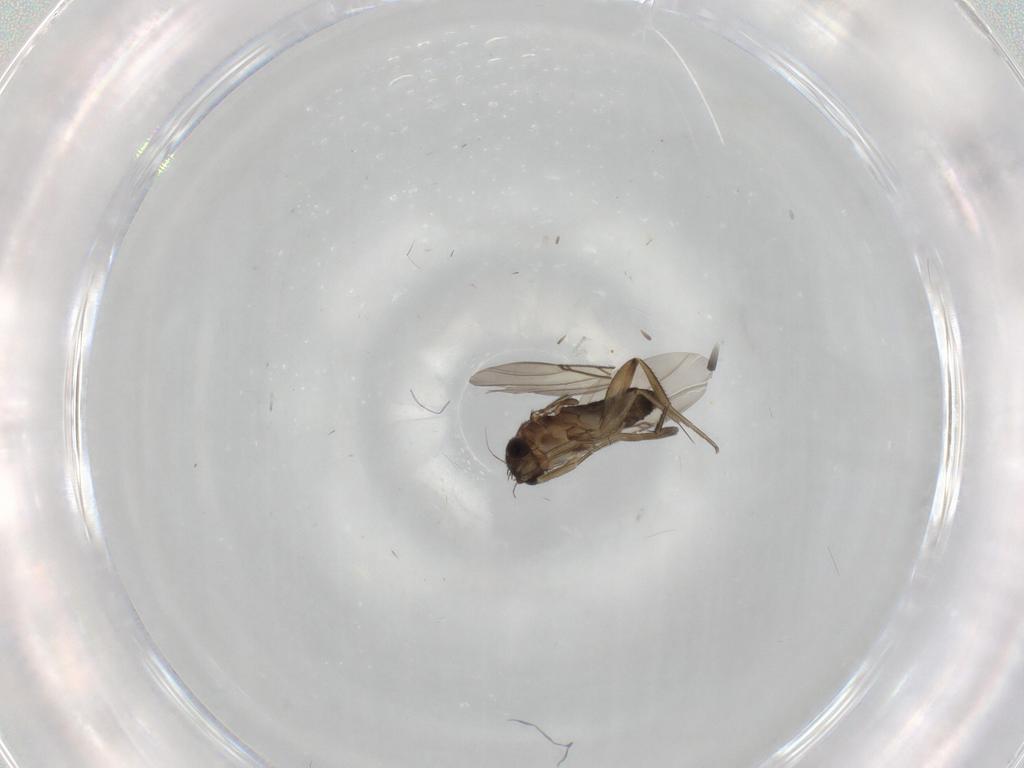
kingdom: Animalia
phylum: Arthropoda
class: Insecta
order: Diptera
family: Phoridae
